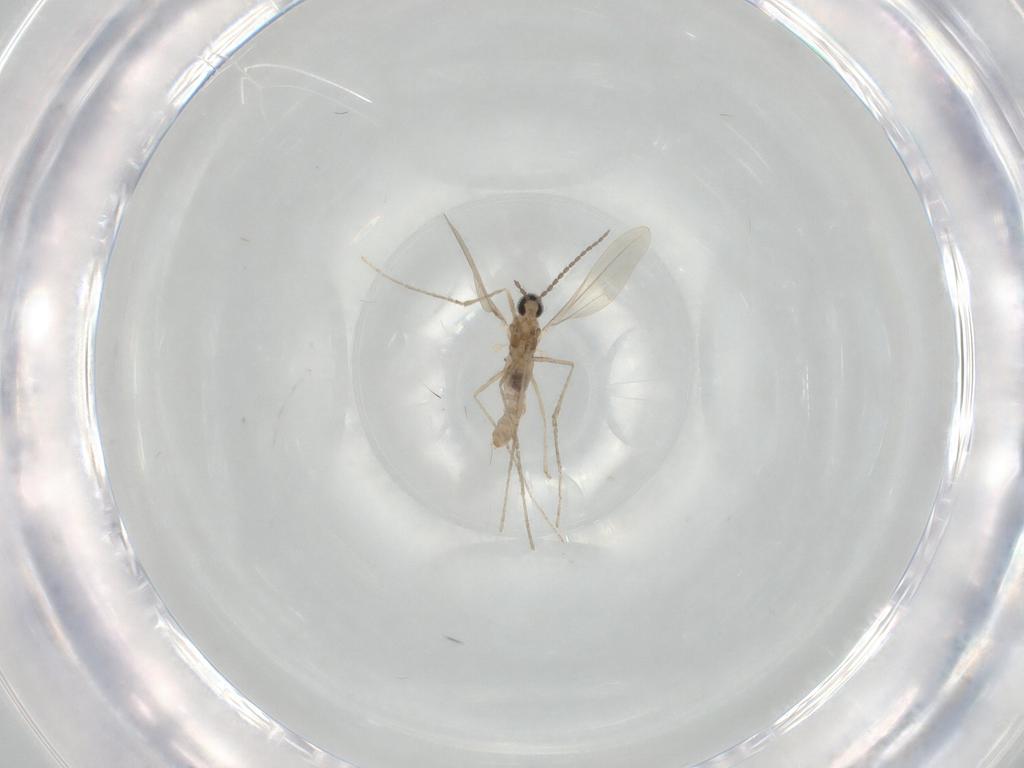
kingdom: Animalia
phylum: Arthropoda
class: Insecta
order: Diptera
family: Cecidomyiidae
